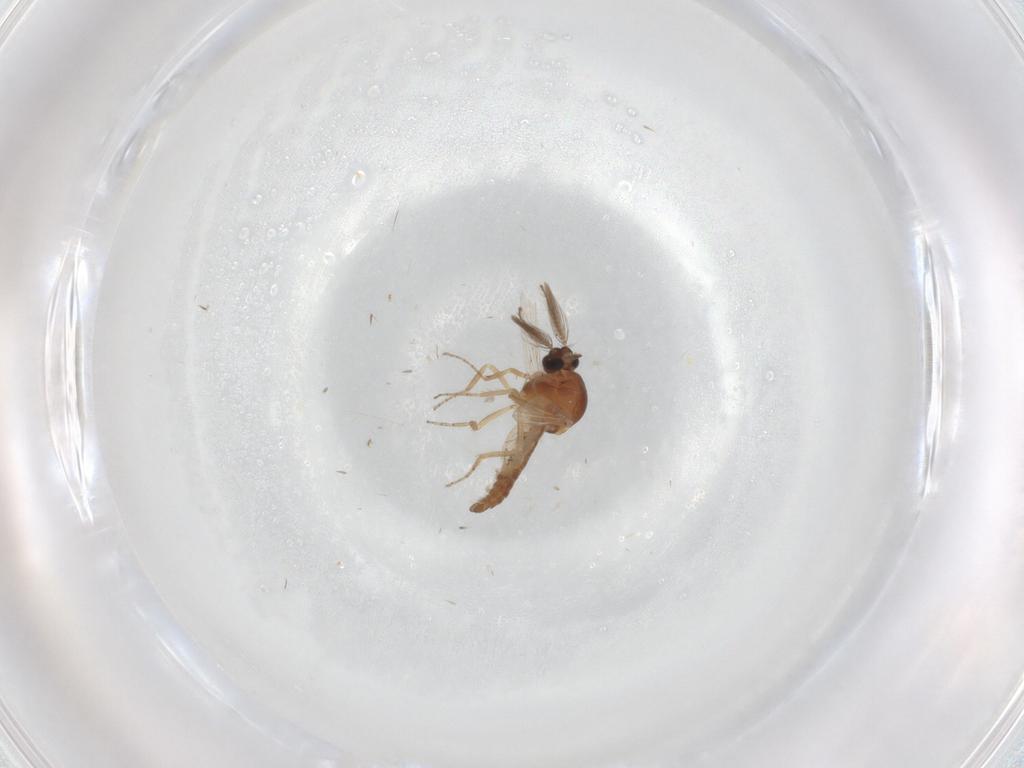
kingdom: Animalia
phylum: Arthropoda
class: Insecta
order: Diptera
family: Ceratopogonidae
